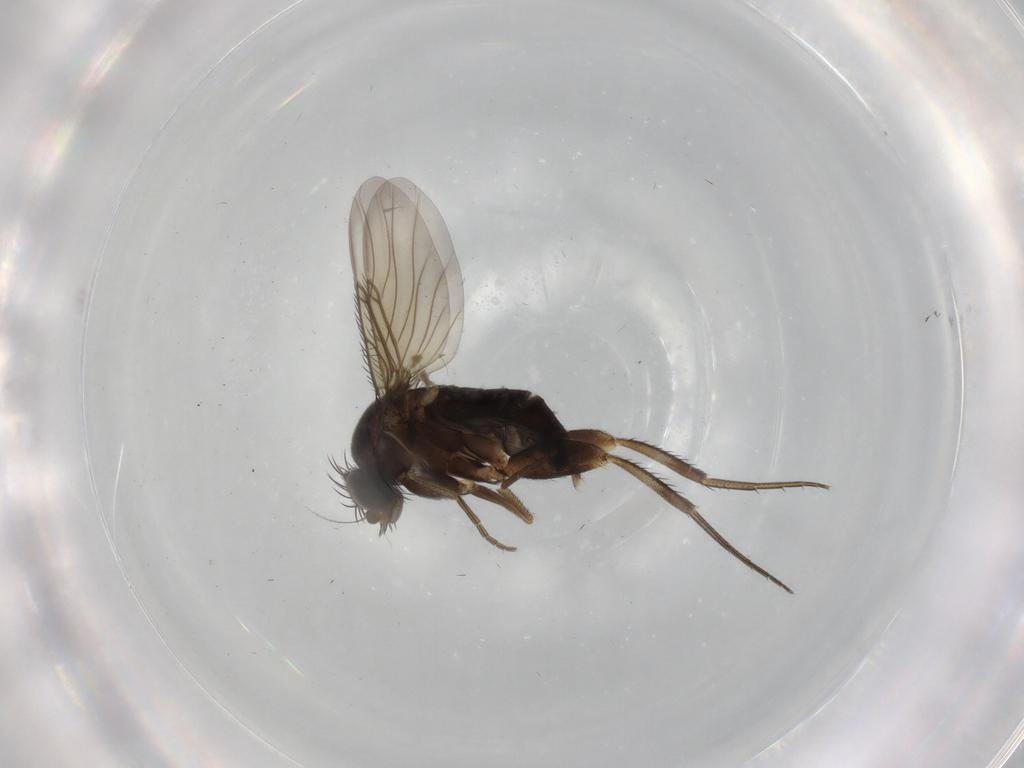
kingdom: Animalia
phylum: Arthropoda
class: Insecta
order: Diptera
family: Phoridae
